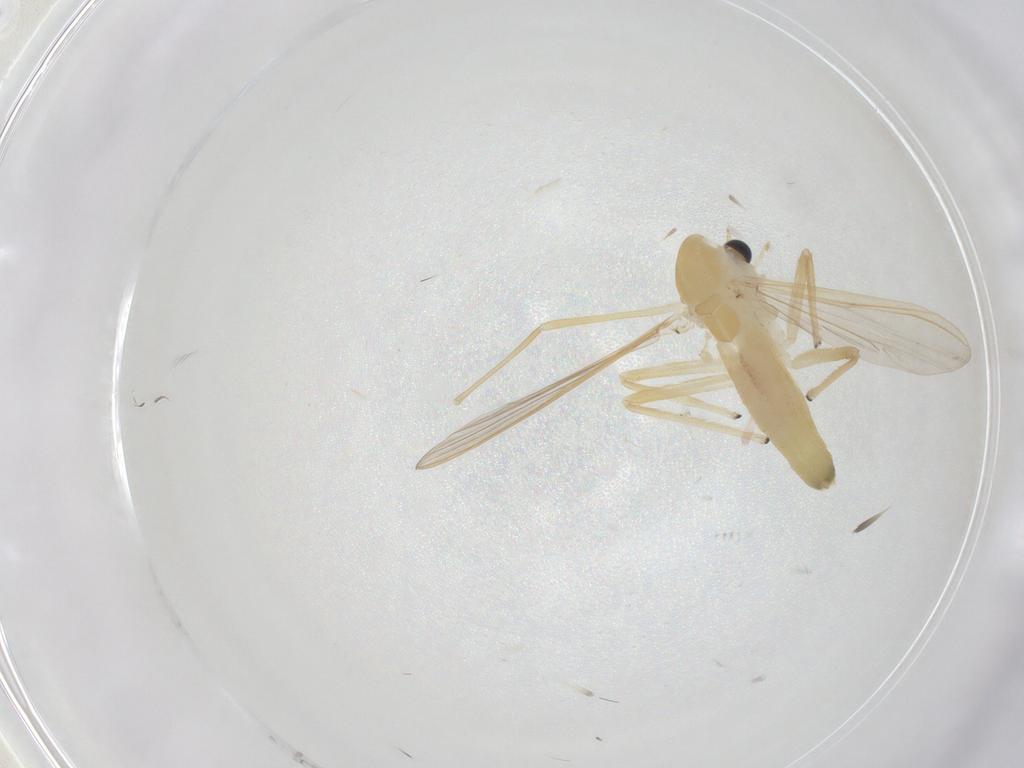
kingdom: Animalia
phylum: Arthropoda
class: Insecta
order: Diptera
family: Chironomidae
